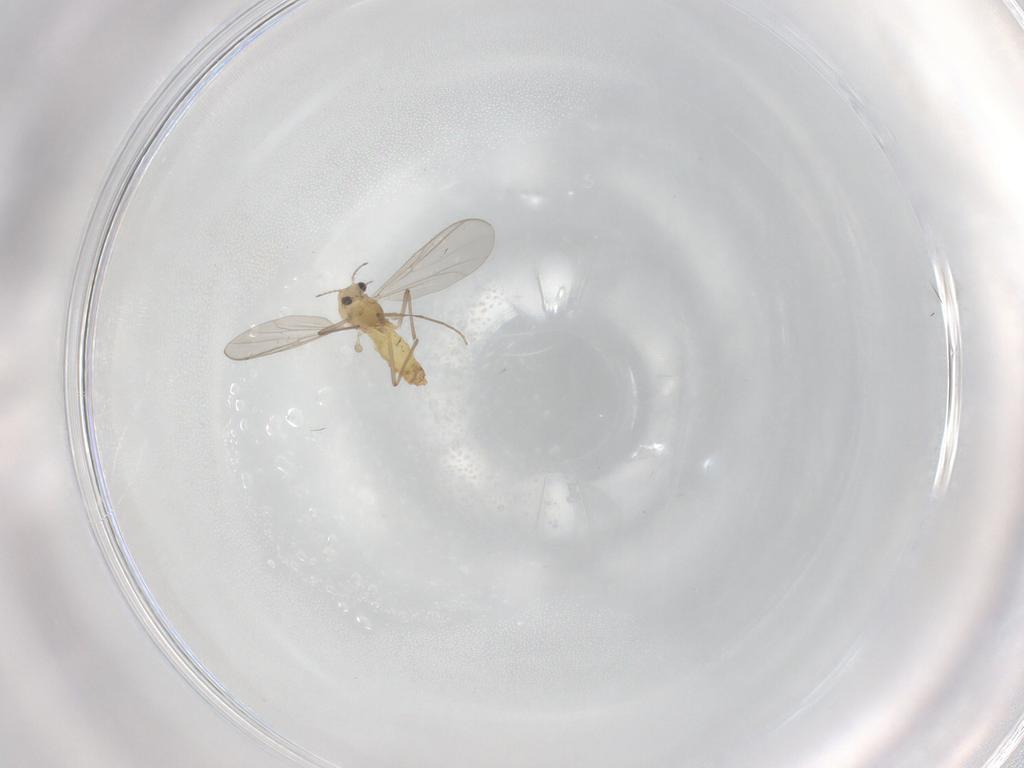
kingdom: Animalia
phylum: Arthropoda
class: Insecta
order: Diptera
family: Chironomidae
